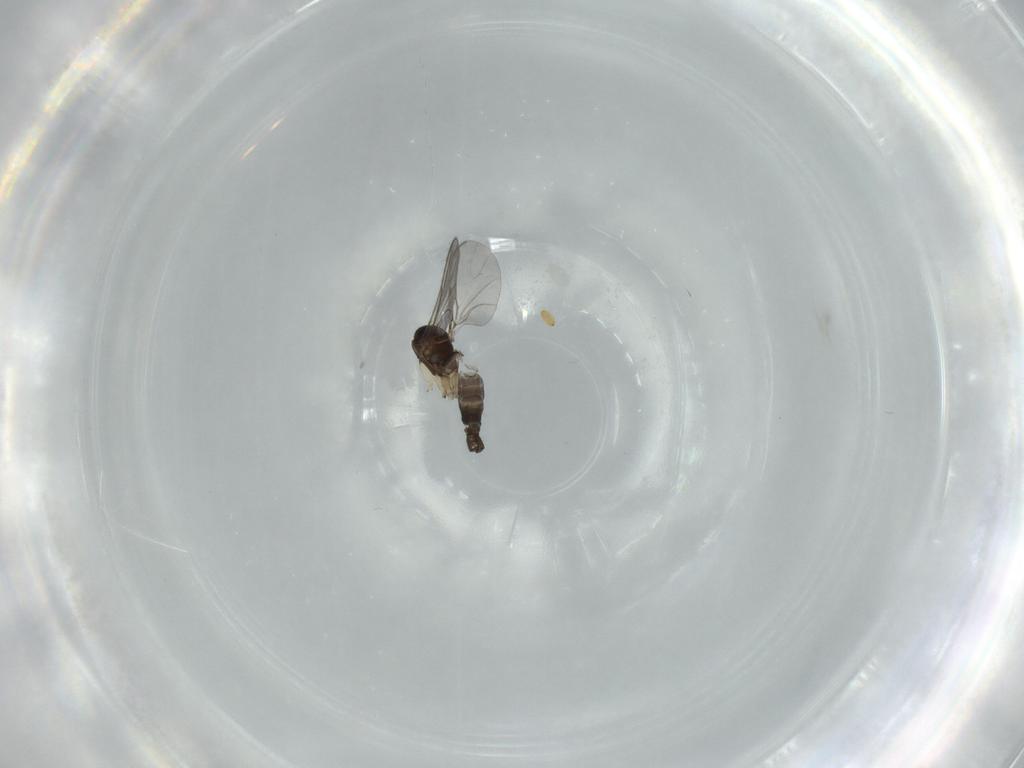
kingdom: Animalia
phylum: Arthropoda
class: Insecta
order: Diptera
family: Sciaridae
